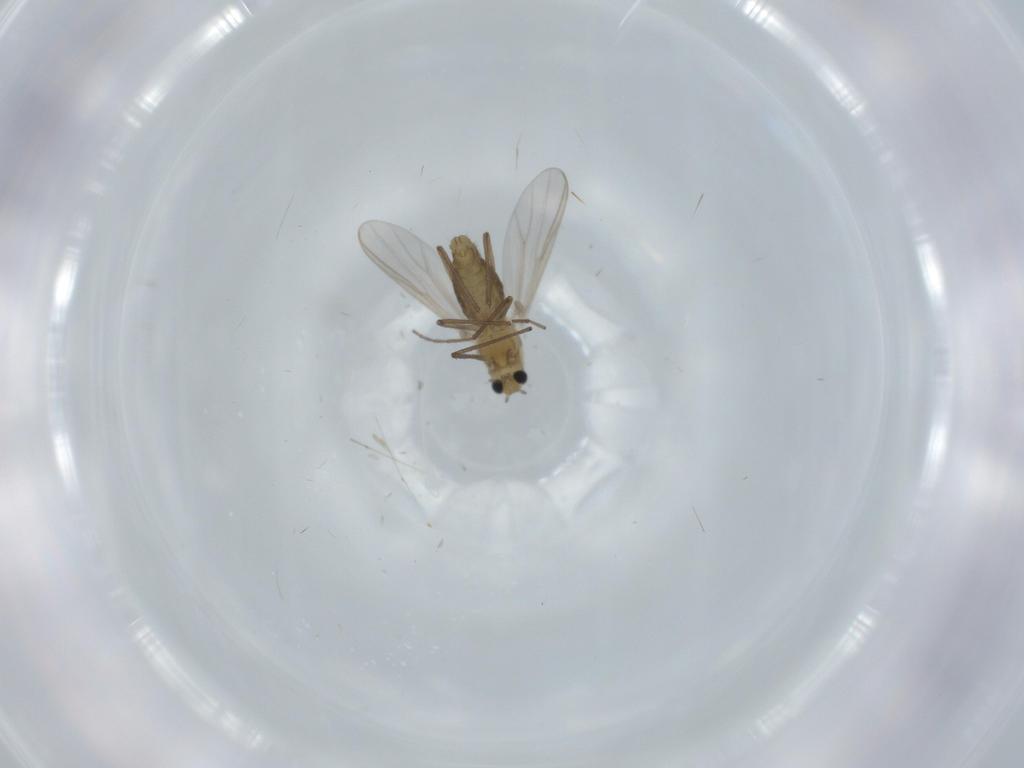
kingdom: Animalia
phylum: Arthropoda
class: Insecta
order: Diptera
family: Chironomidae
